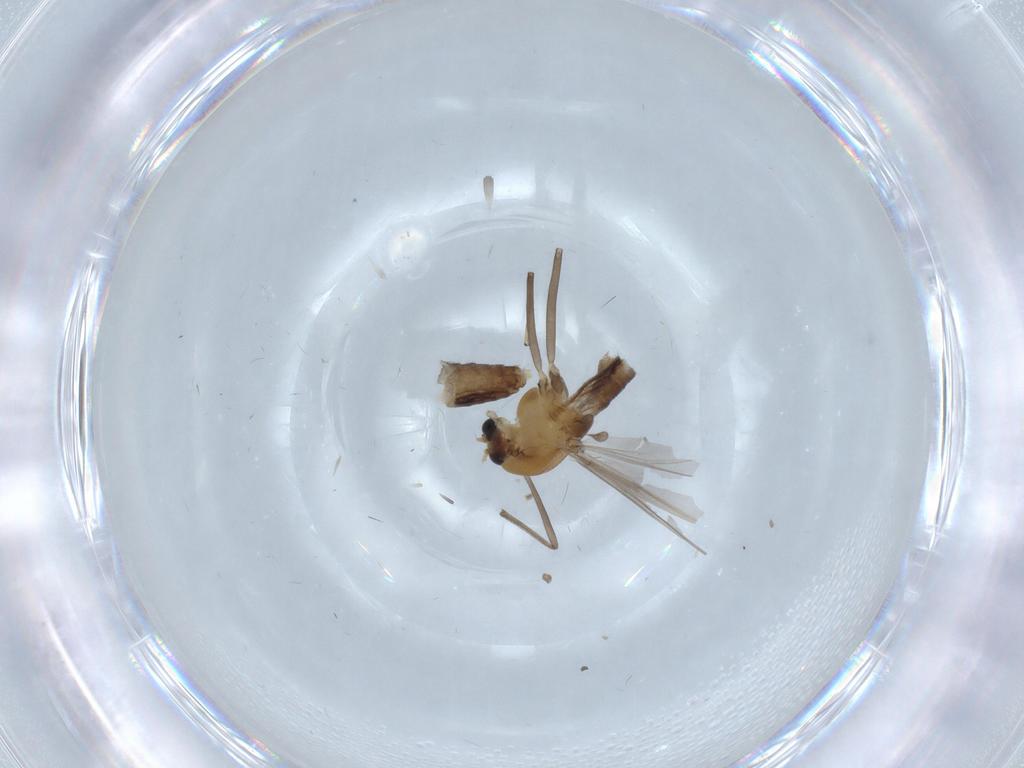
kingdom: Animalia
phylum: Arthropoda
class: Insecta
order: Diptera
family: Chironomidae
